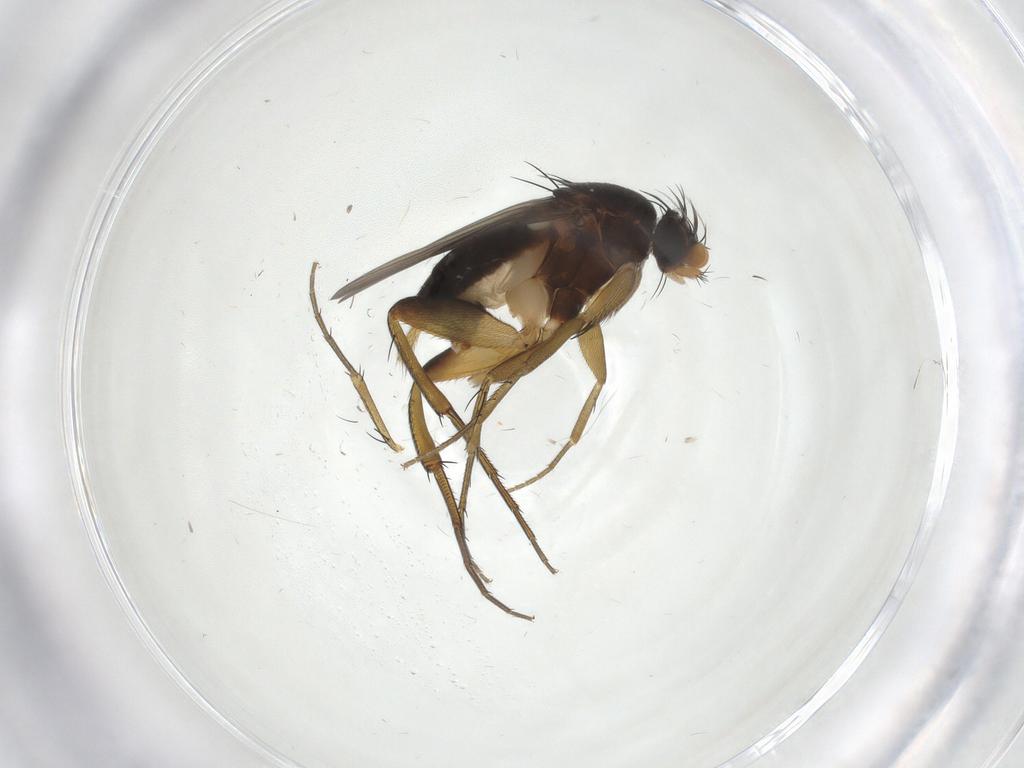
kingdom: Animalia
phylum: Arthropoda
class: Insecta
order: Diptera
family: Phoridae
